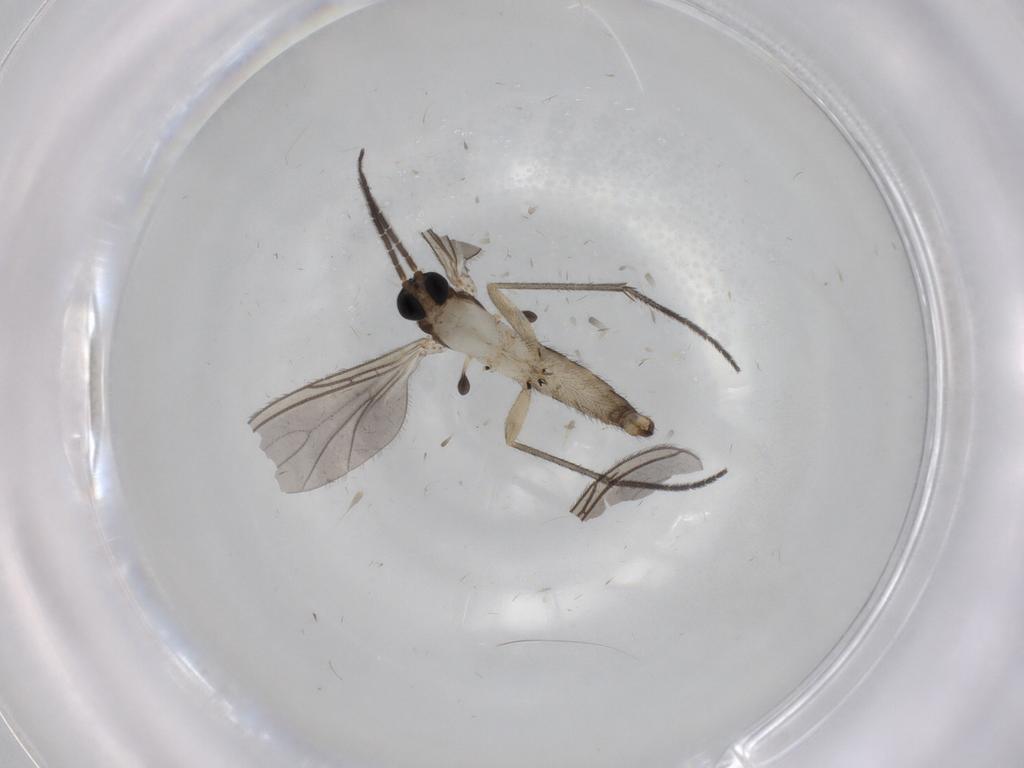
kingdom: Animalia
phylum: Arthropoda
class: Insecta
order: Diptera
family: Sciaridae
